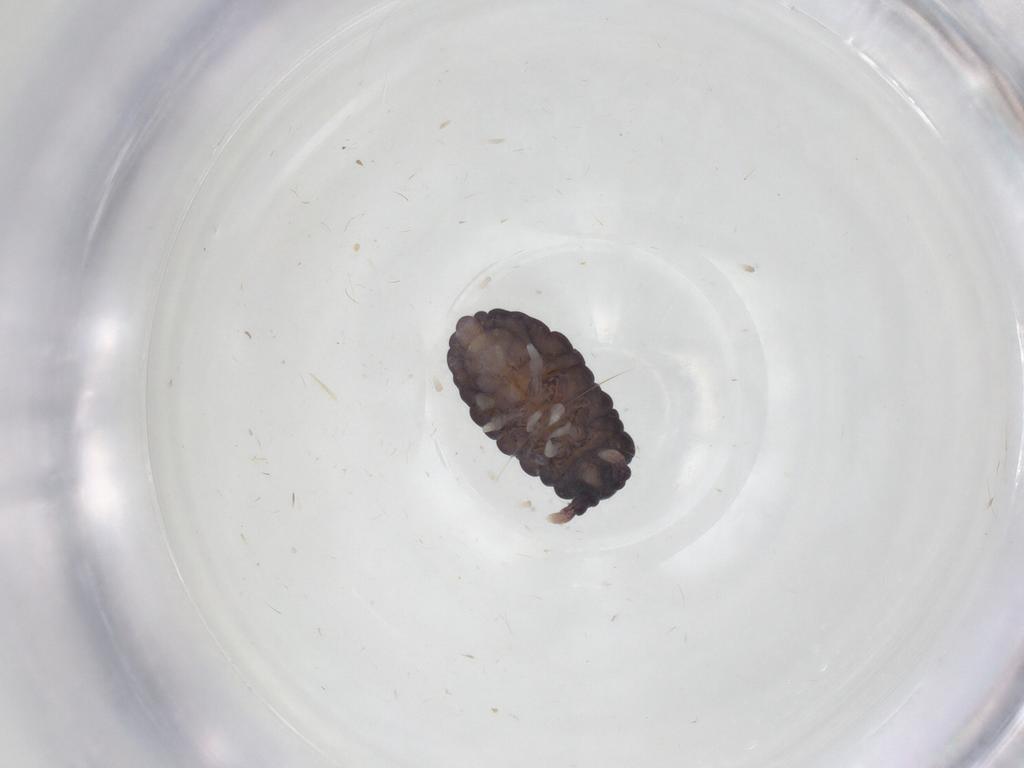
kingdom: Animalia
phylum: Arthropoda
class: Collembola
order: Poduromorpha
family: Neanuridae
